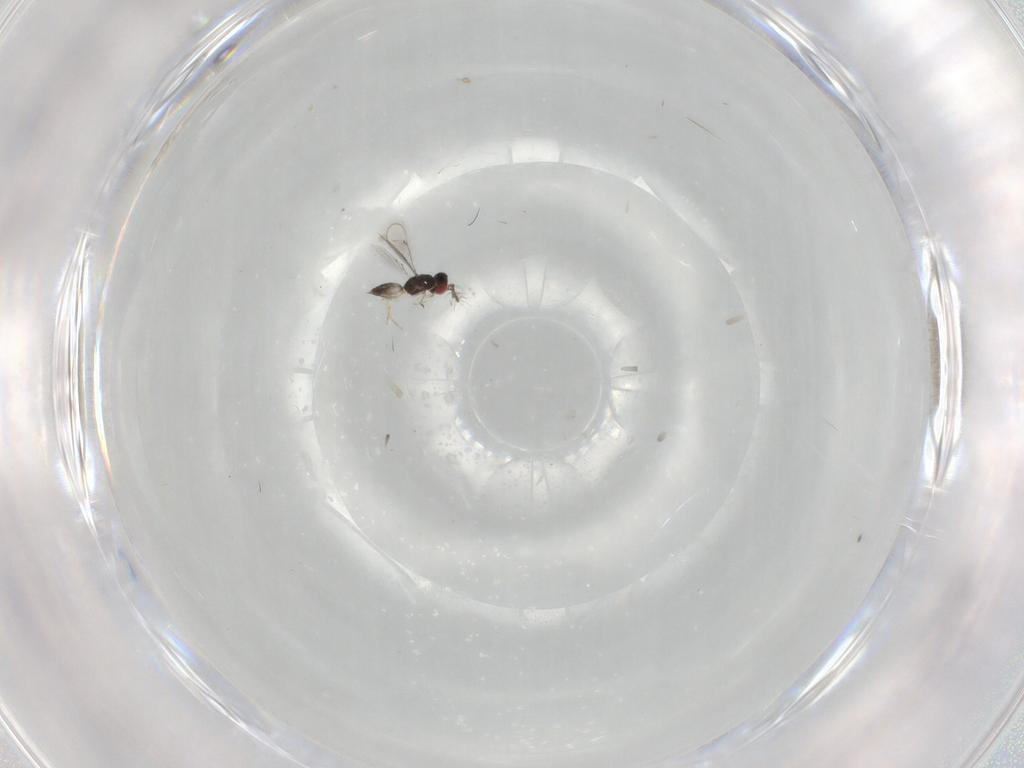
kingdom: Animalia
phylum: Arthropoda
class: Insecta
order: Hymenoptera
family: Eulophidae
